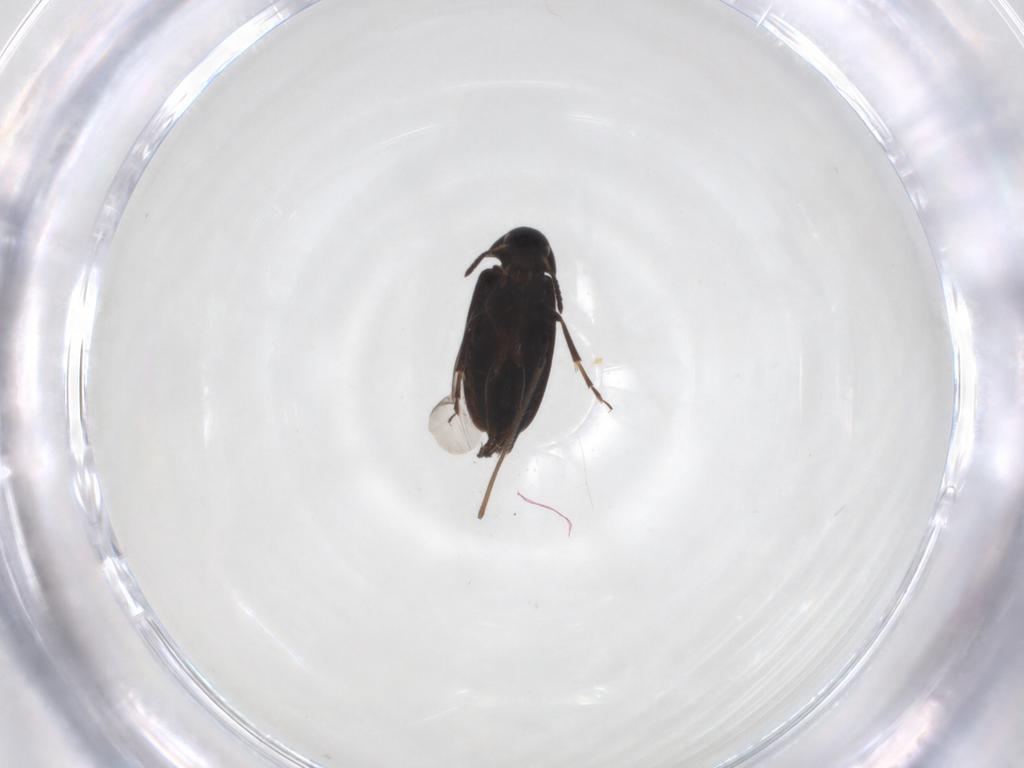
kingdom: Animalia
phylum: Arthropoda
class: Insecta
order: Coleoptera
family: Scraptiidae
